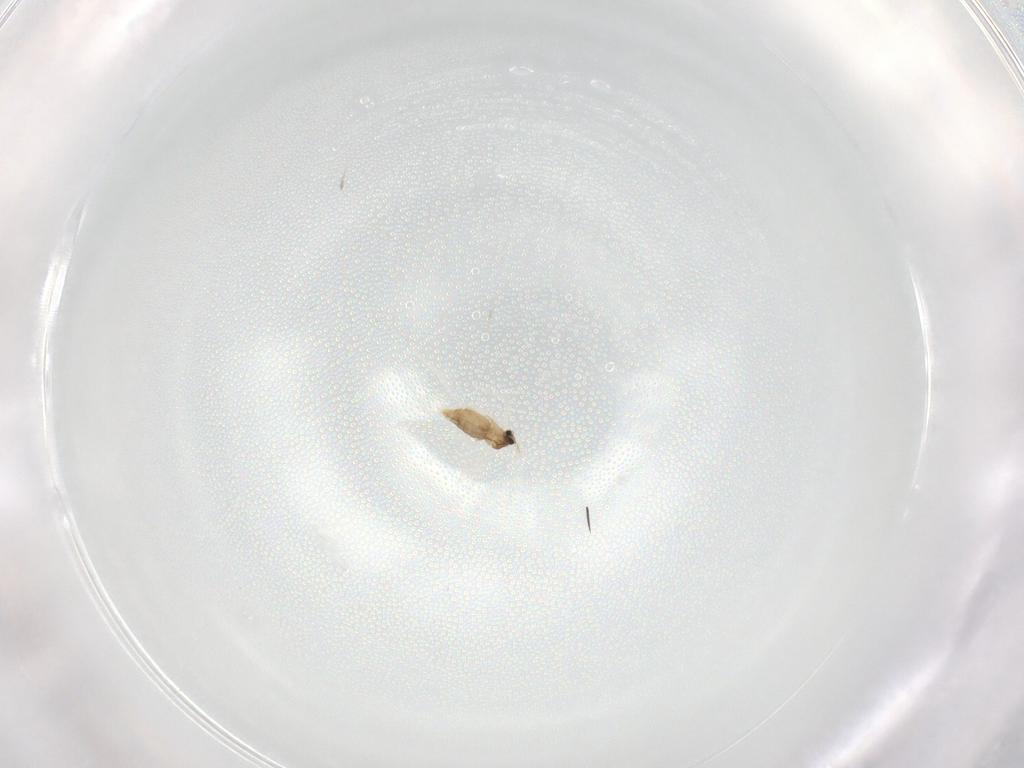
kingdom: Animalia
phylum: Arthropoda
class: Insecta
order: Diptera
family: Cecidomyiidae
